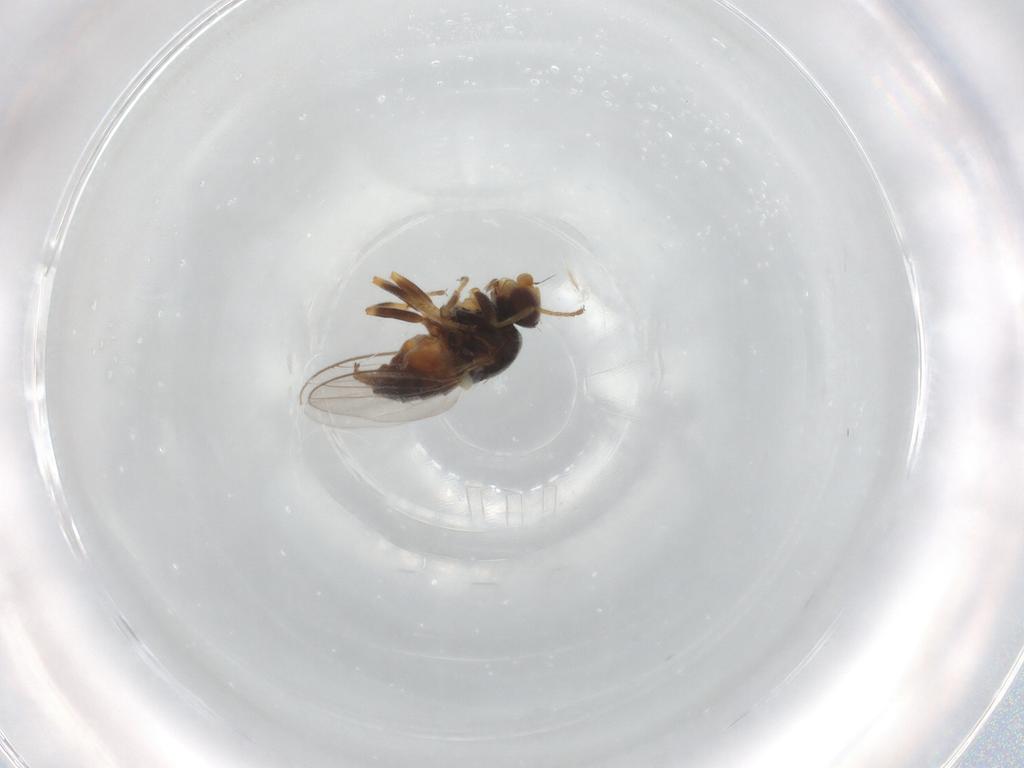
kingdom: Animalia
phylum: Arthropoda
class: Insecta
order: Diptera
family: Chloropidae
